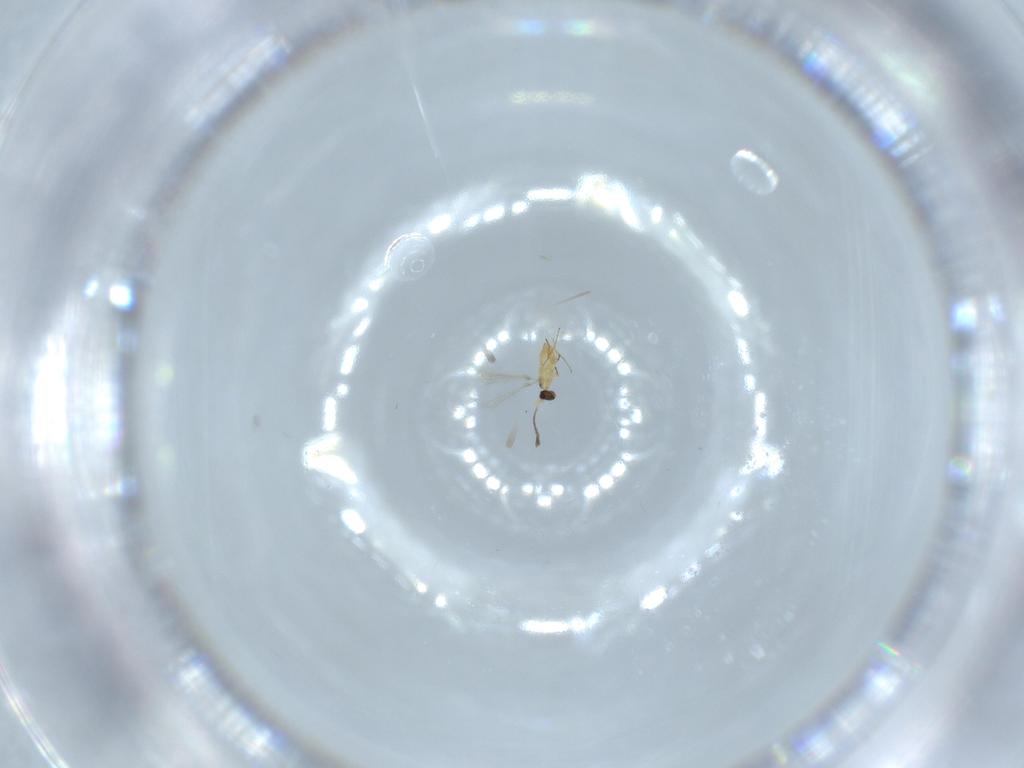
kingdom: Animalia
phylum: Arthropoda
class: Insecta
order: Hymenoptera
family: Mymaridae
